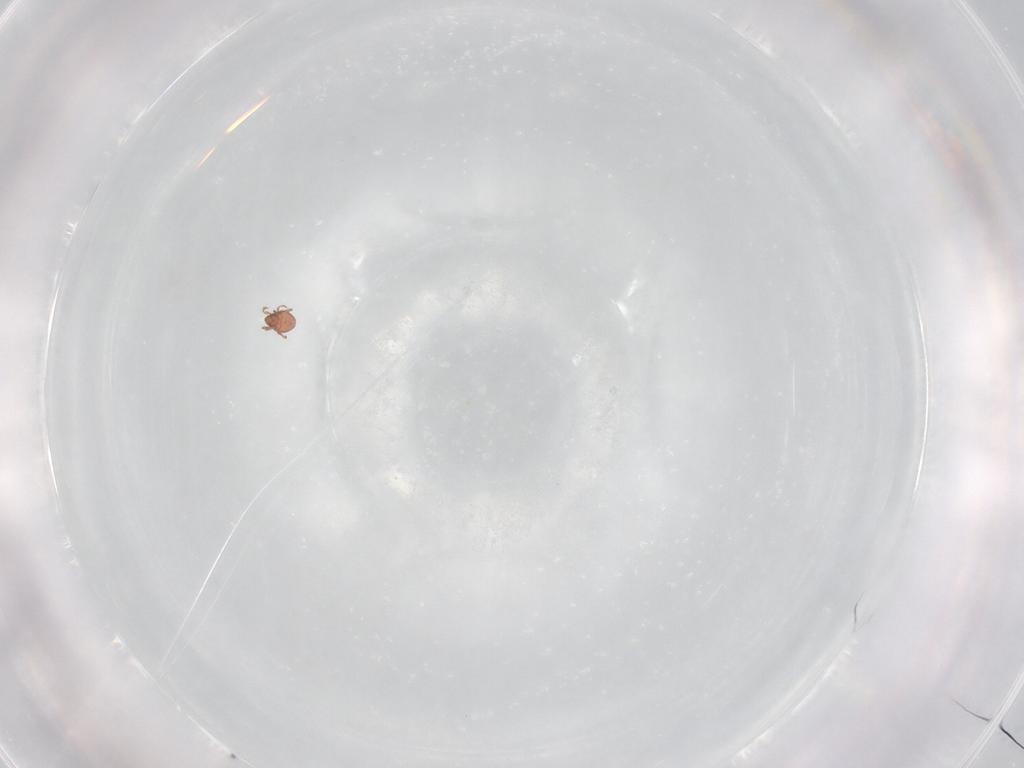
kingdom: Animalia
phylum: Arthropoda
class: Arachnida
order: Sarcoptiformes
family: Oppiidae
